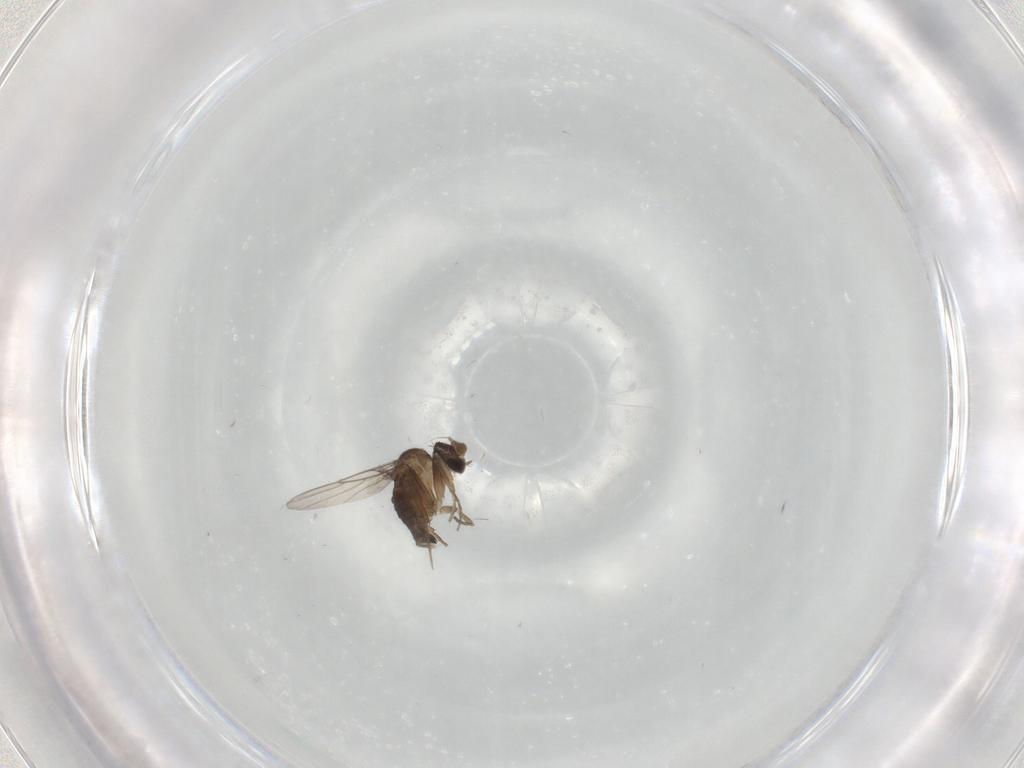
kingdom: Animalia
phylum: Arthropoda
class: Insecta
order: Diptera
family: Phoridae
